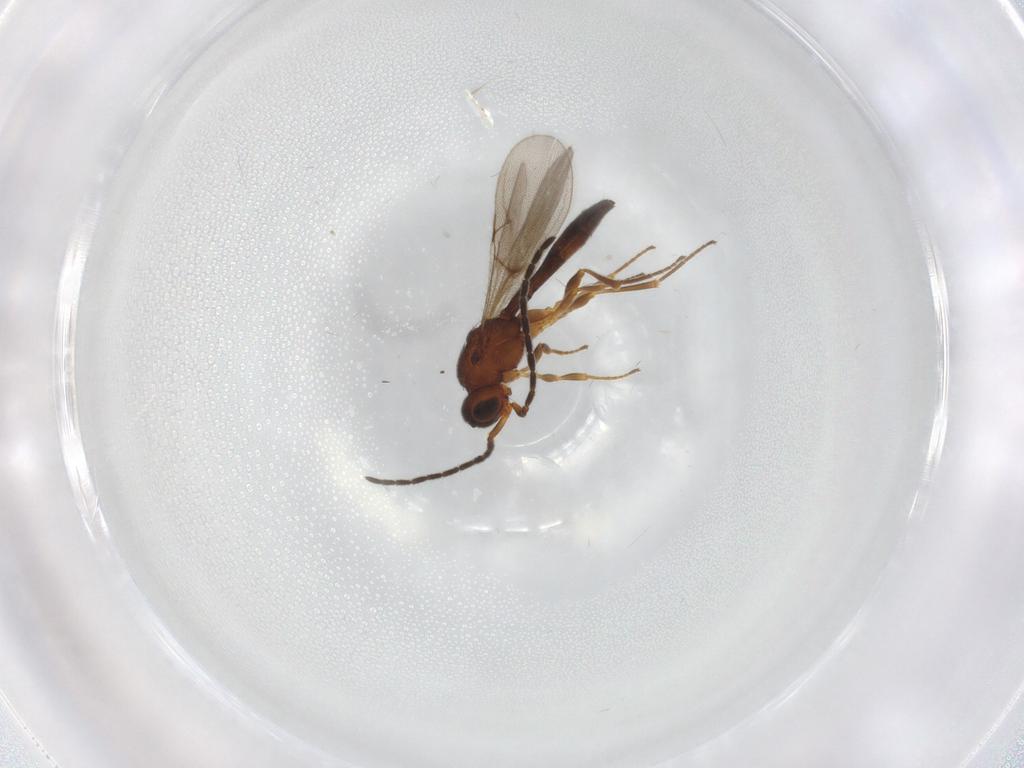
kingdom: Animalia
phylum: Arthropoda
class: Insecta
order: Hymenoptera
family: Scelionidae
